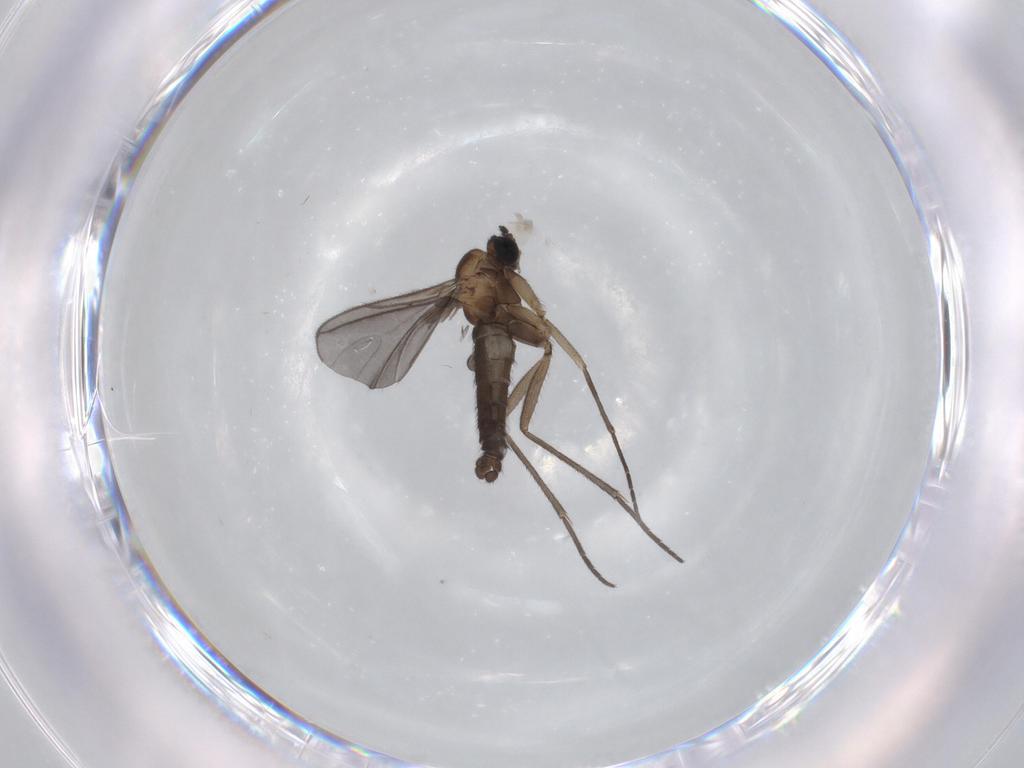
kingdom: Animalia
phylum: Arthropoda
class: Insecta
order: Diptera
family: Sciaridae
